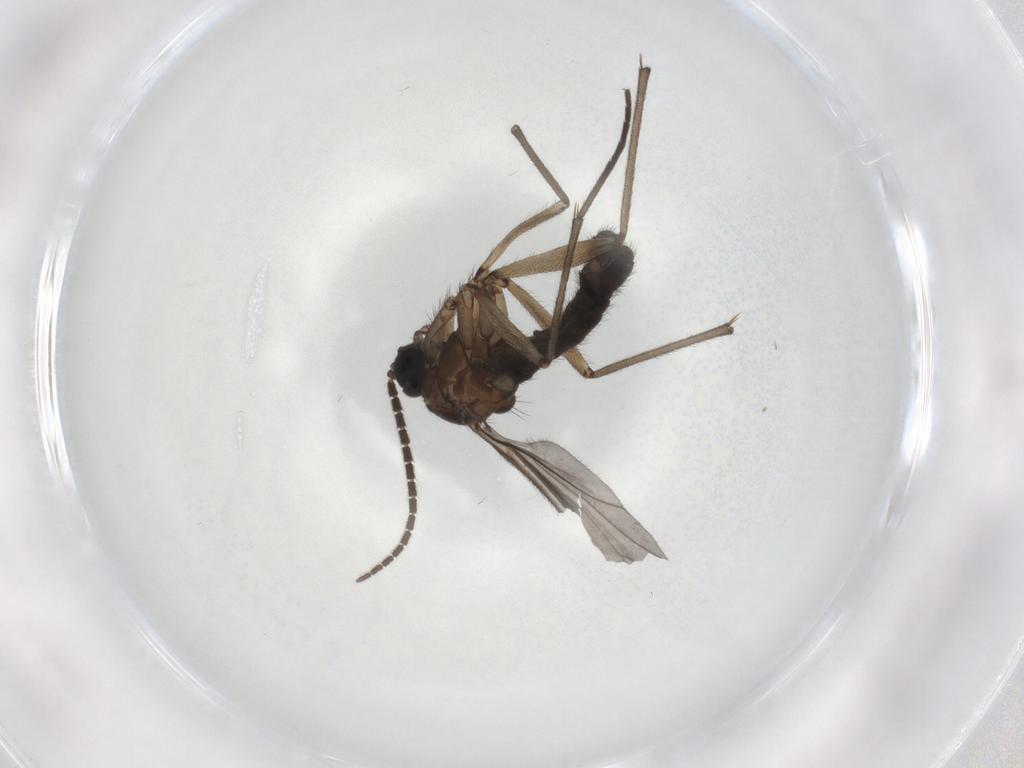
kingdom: Animalia
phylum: Arthropoda
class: Insecta
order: Diptera
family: Sciaridae
